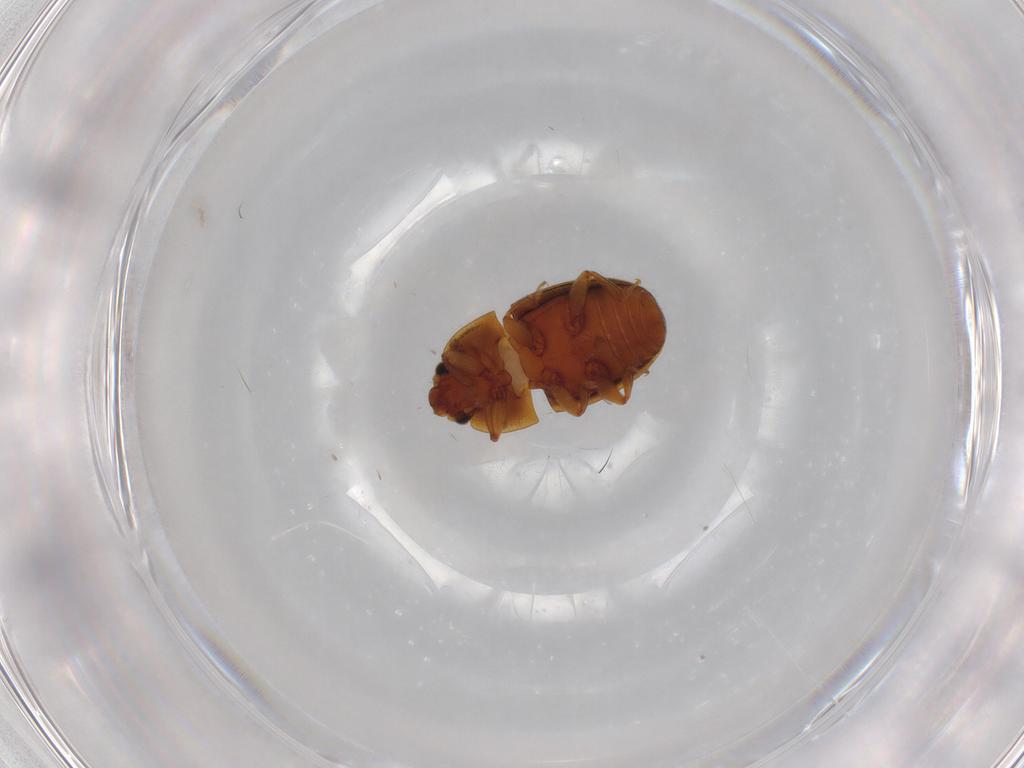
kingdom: Animalia
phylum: Arthropoda
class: Insecta
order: Coleoptera
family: Nitidulidae
